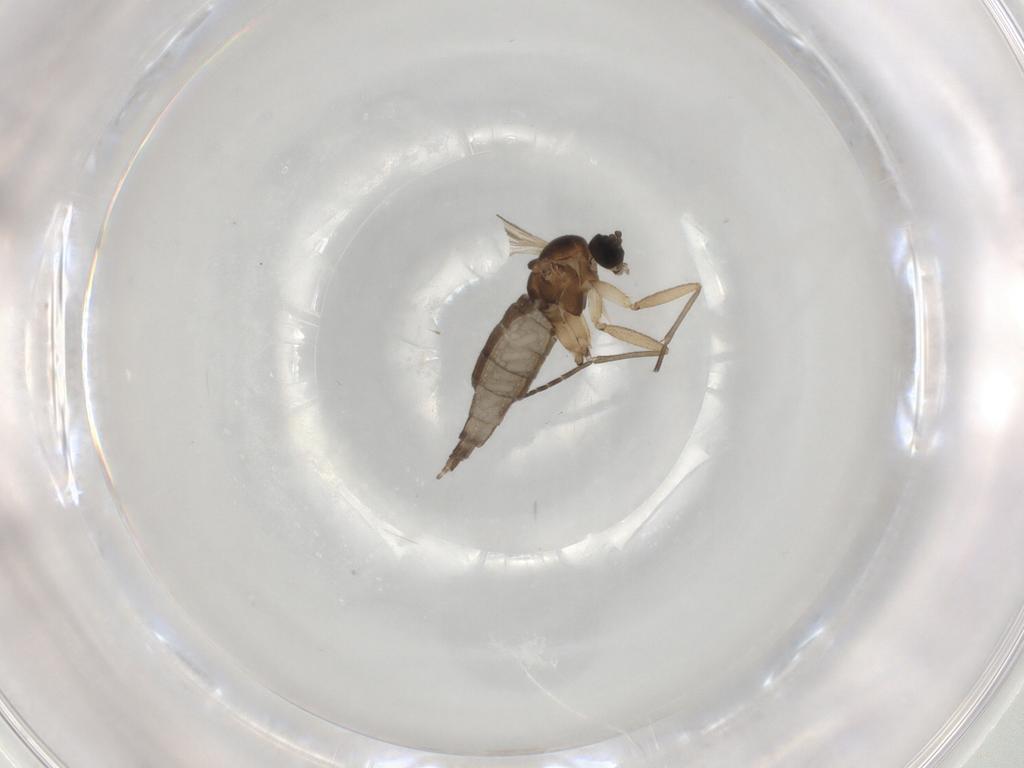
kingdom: Animalia
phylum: Arthropoda
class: Insecta
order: Diptera
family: Sciaridae
